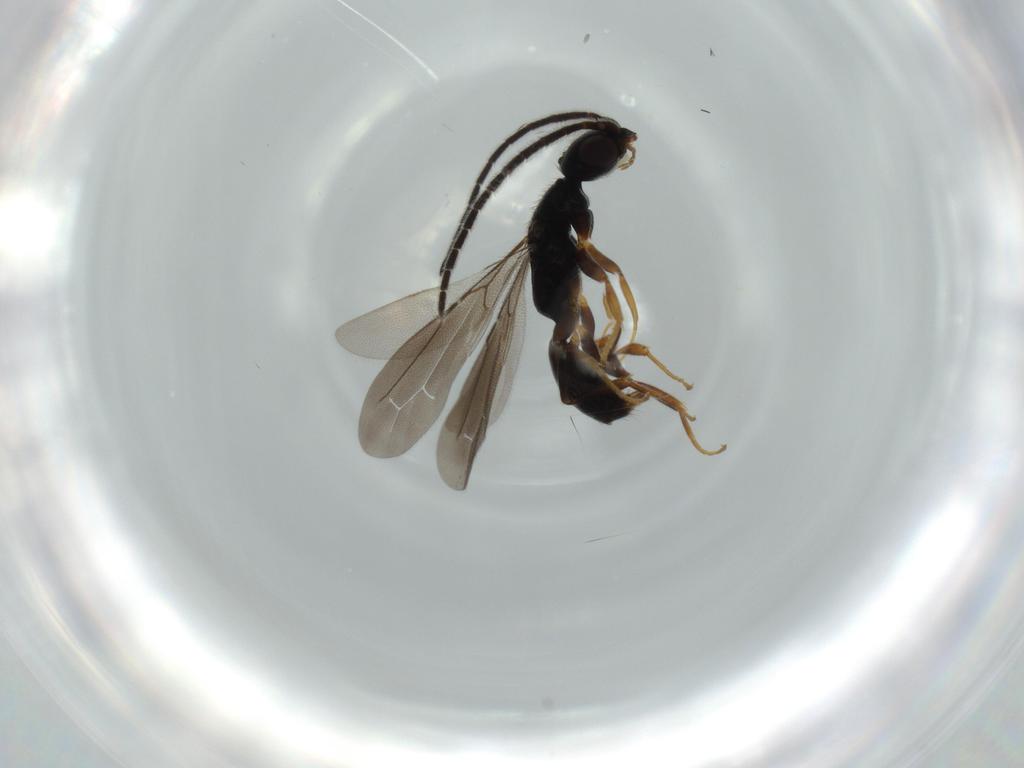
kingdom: Animalia
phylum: Arthropoda
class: Insecta
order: Hymenoptera
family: Bethylidae
